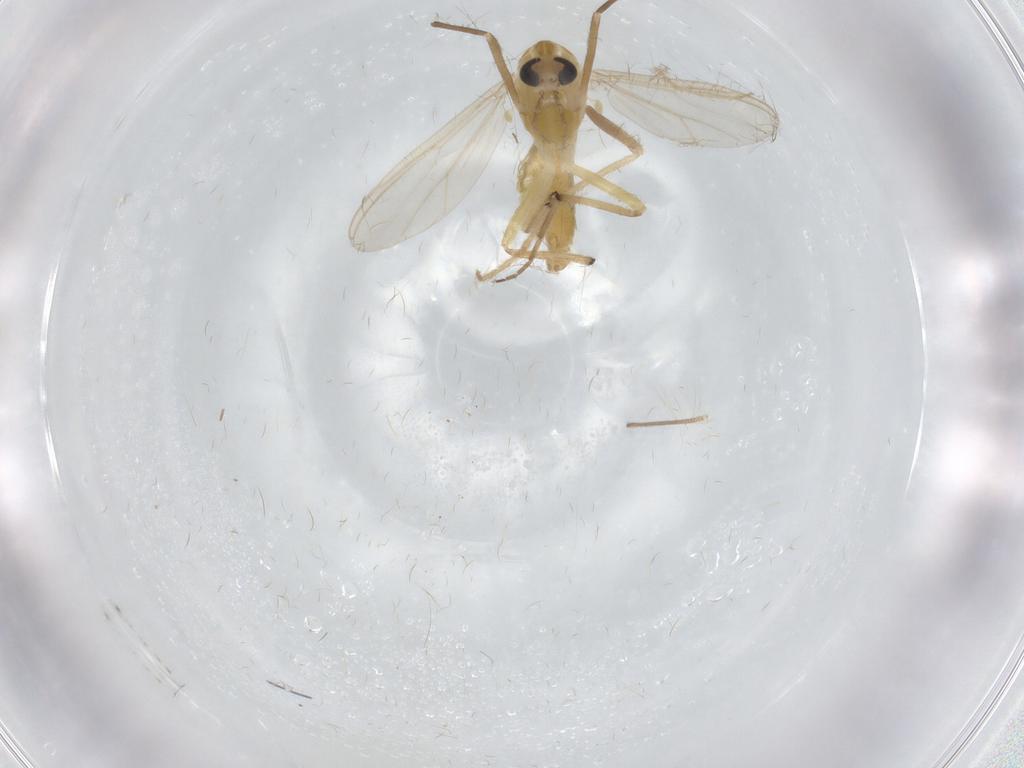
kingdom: Animalia
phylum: Arthropoda
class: Insecta
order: Diptera
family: Chironomidae
